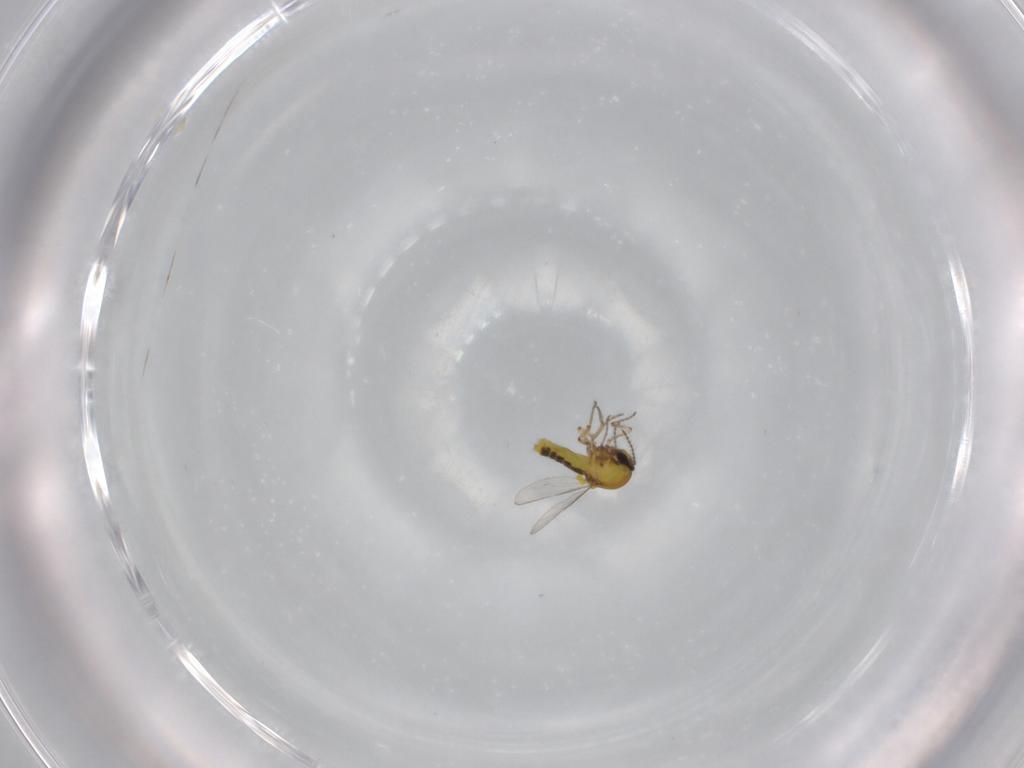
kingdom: Animalia
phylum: Arthropoda
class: Insecta
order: Diptera
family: Ceratopogonidae
